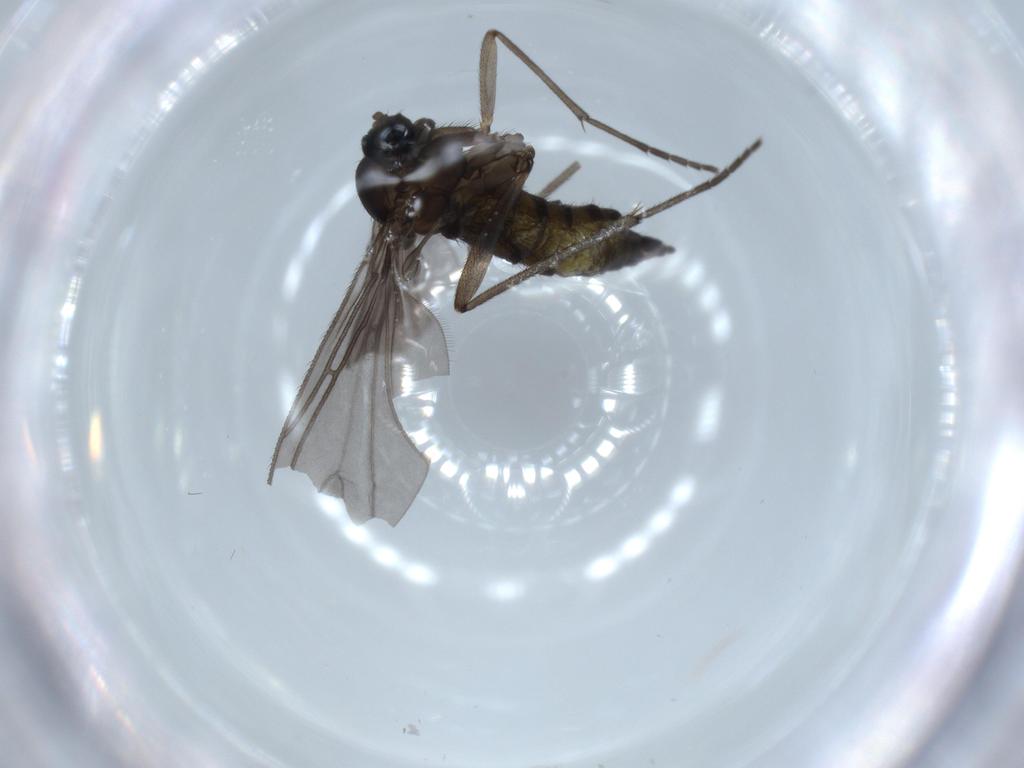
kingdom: Animalia
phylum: Arthropoda
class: Insecta
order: Diptera
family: Sciaridae
